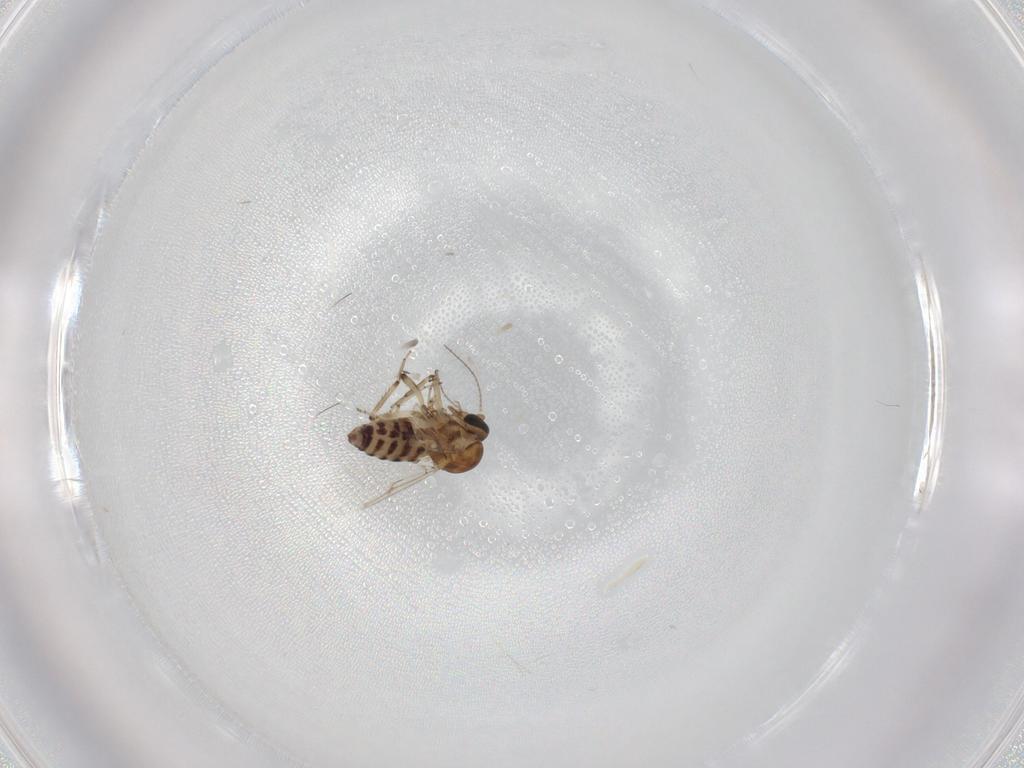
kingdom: Animalia
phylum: Arthropoda
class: Insecta
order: Diptera
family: Ceratopogonidae
